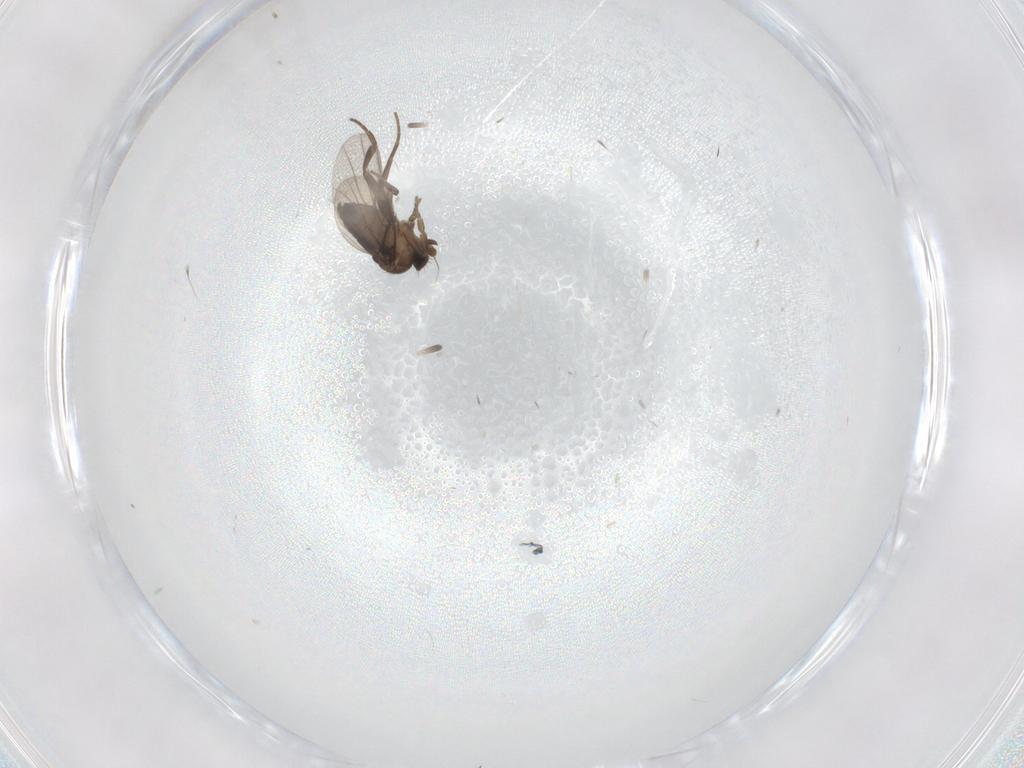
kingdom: Animalia
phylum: Arthropoda
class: Insecta
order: Diptera
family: Phoridae
